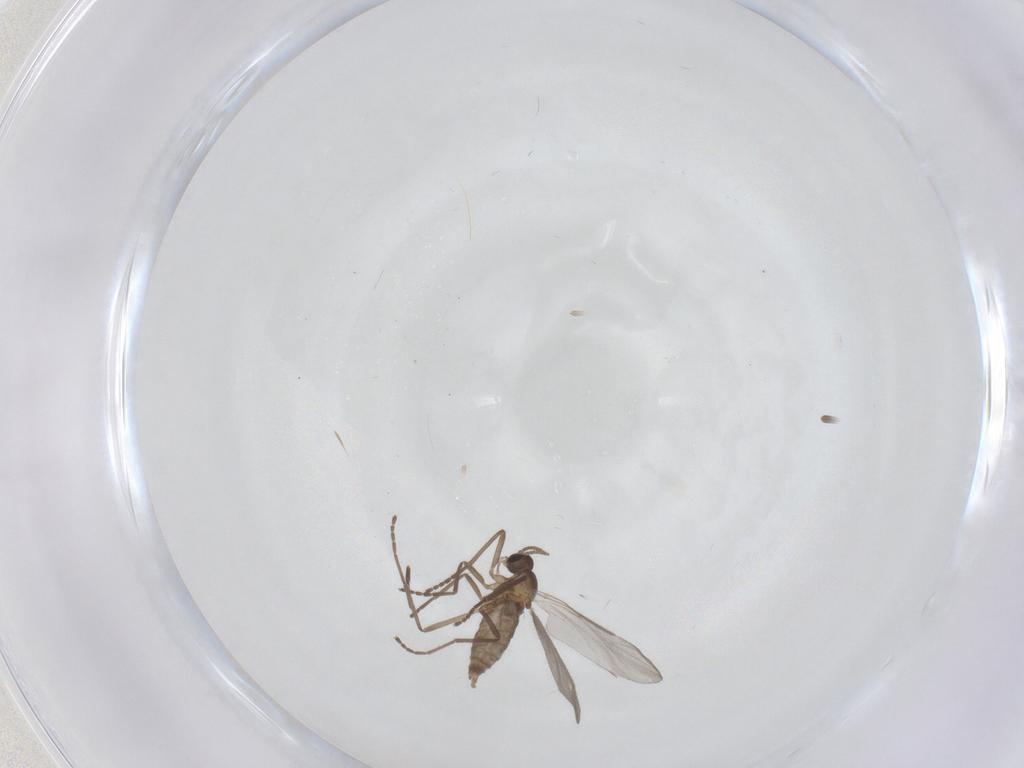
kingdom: Animalia
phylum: Arthropoda
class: Insecta
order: Diptera
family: Cecidomyiidae
